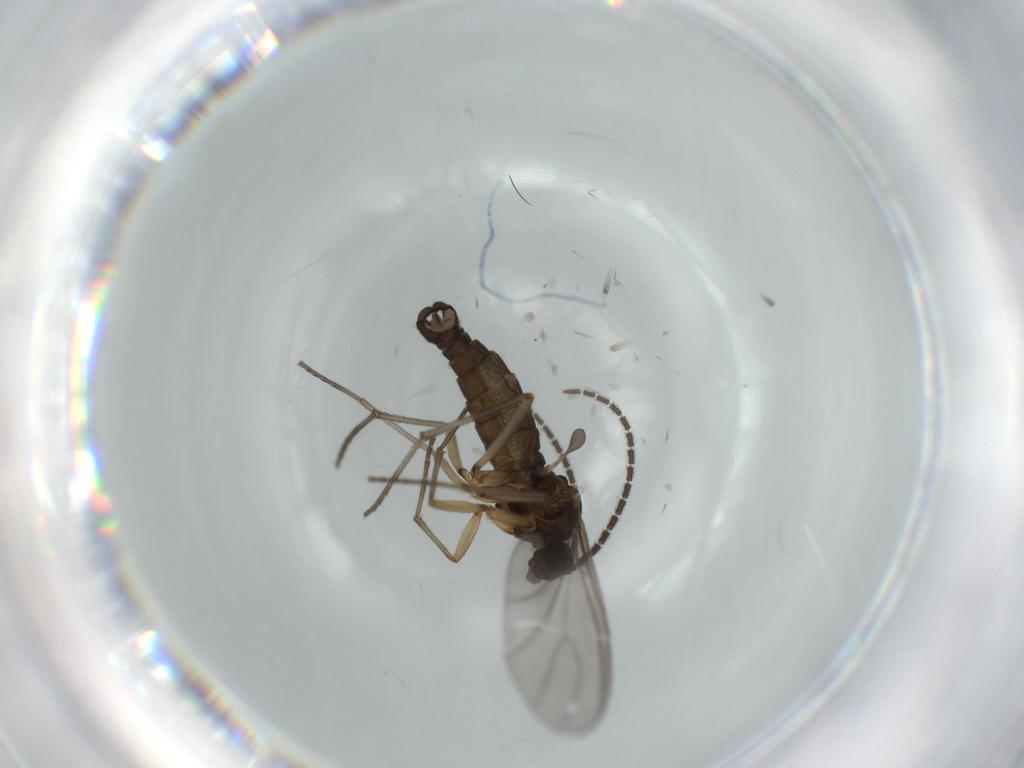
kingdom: Animalia
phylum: Arthropoda
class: Insecta
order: Diptera
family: Sciaridae
